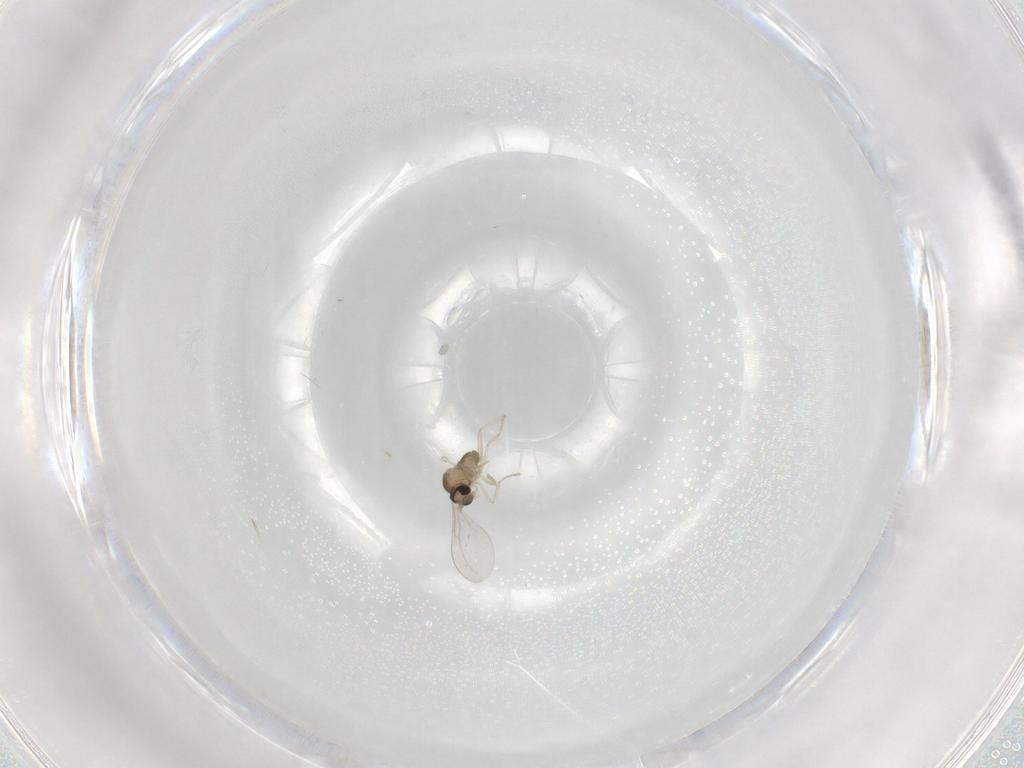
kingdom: Animalia
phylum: Arthropoda
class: Insecta
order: Diptera
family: Cecidomyiidae
